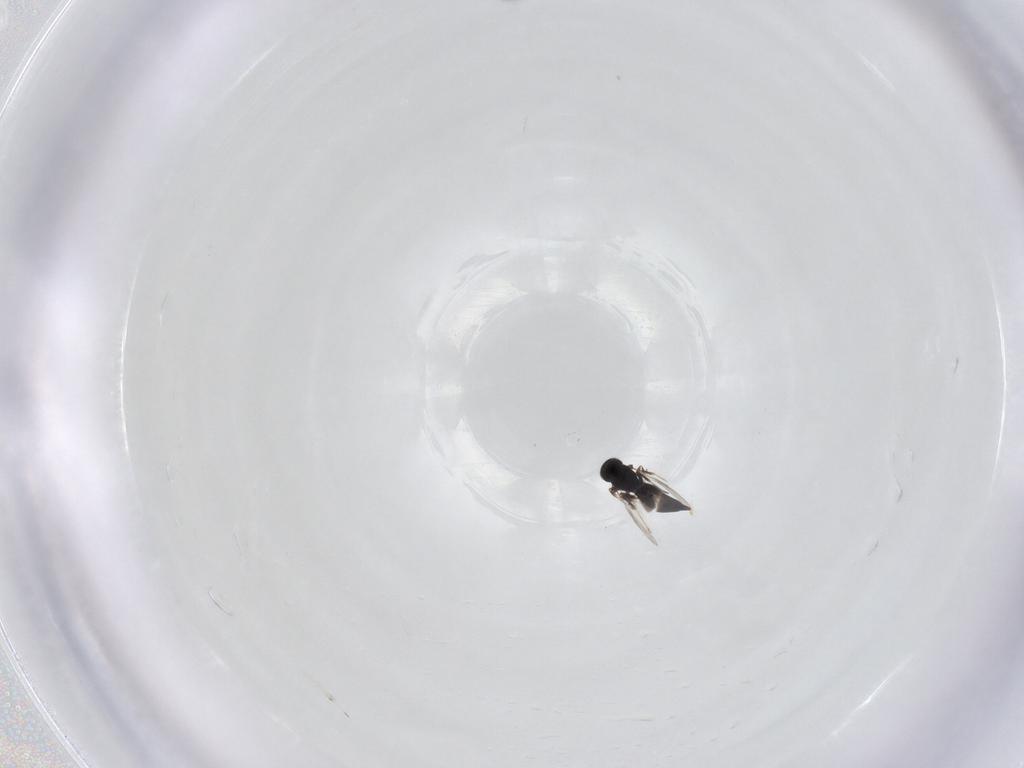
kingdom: Animalia
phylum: Arthropoda
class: Insecta
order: Hymenoptera
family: Scelionidae
